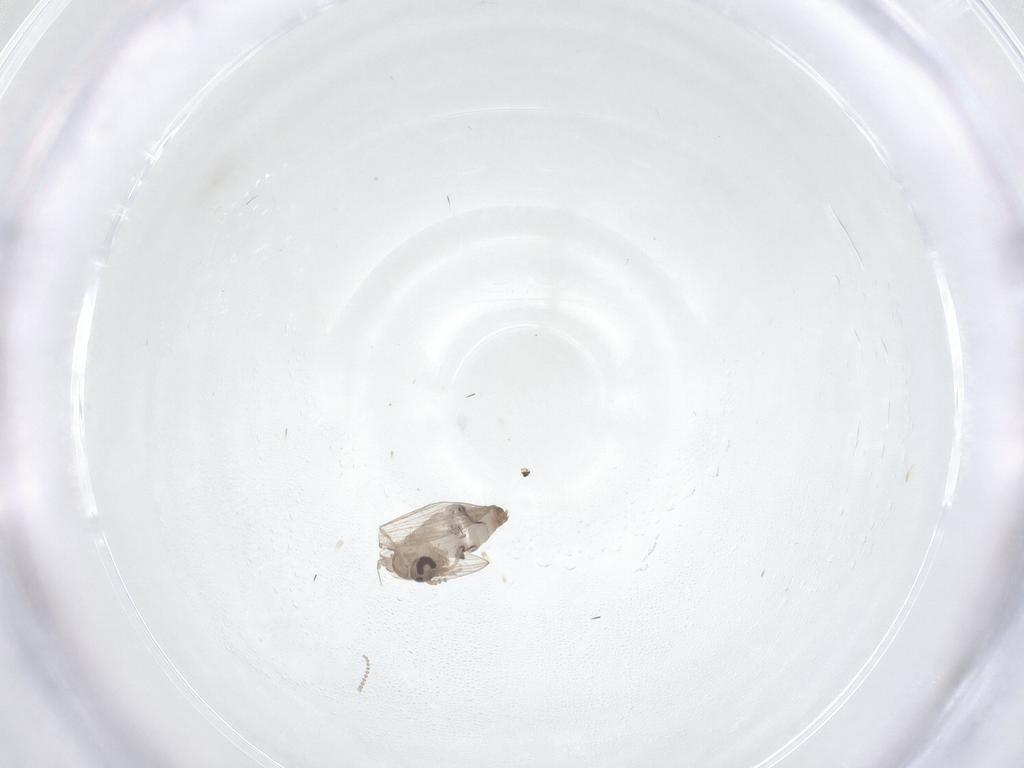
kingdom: Animalia
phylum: Arthropoda
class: Insecta
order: Diptera
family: Psychodidae
